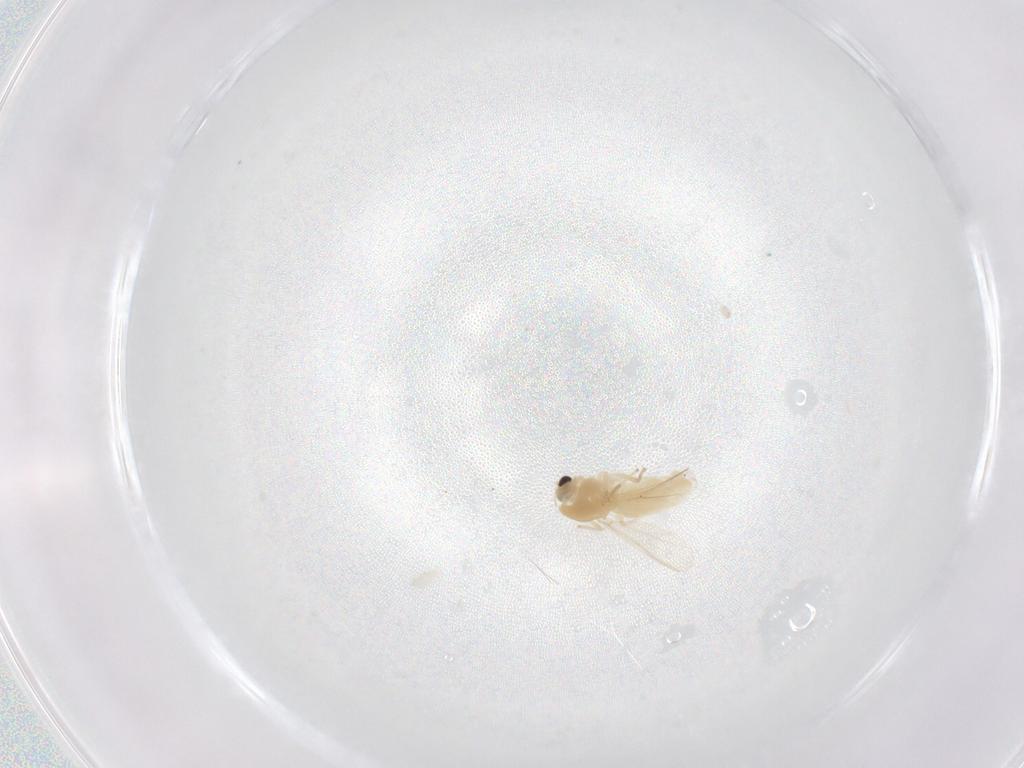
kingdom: Animalia
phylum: Arthropoda
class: Insecta
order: Diptera
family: Chironomidae
